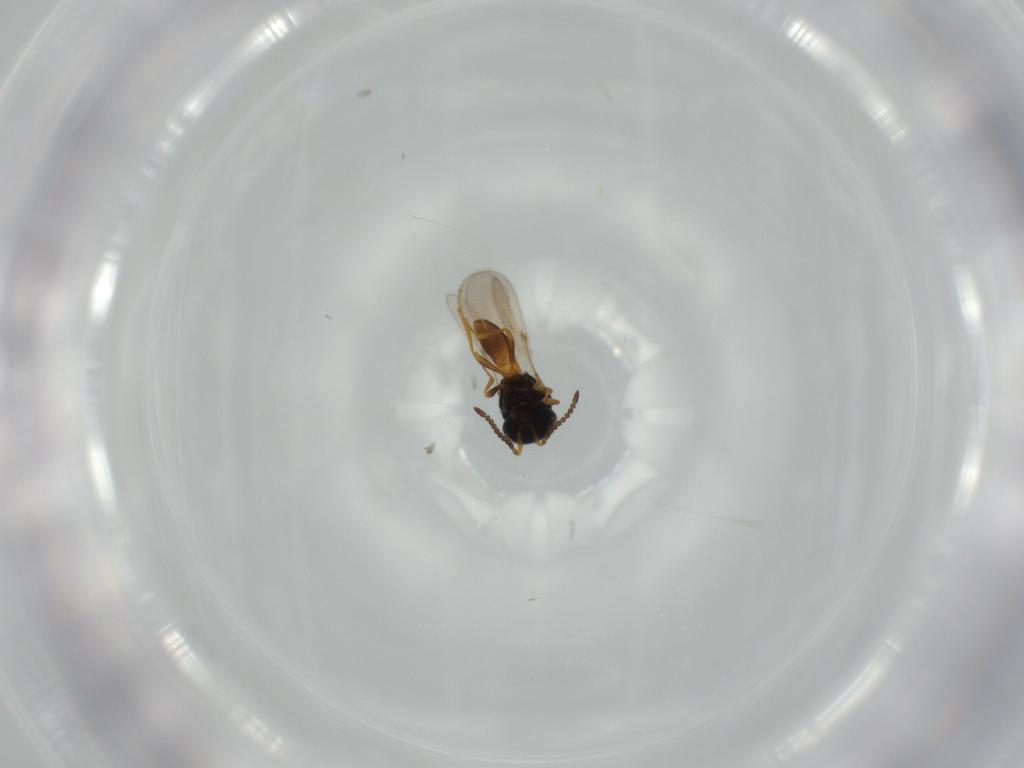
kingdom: Animalia
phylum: Arthropoda
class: Insecta
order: Hymenoptera
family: Scelionidae
